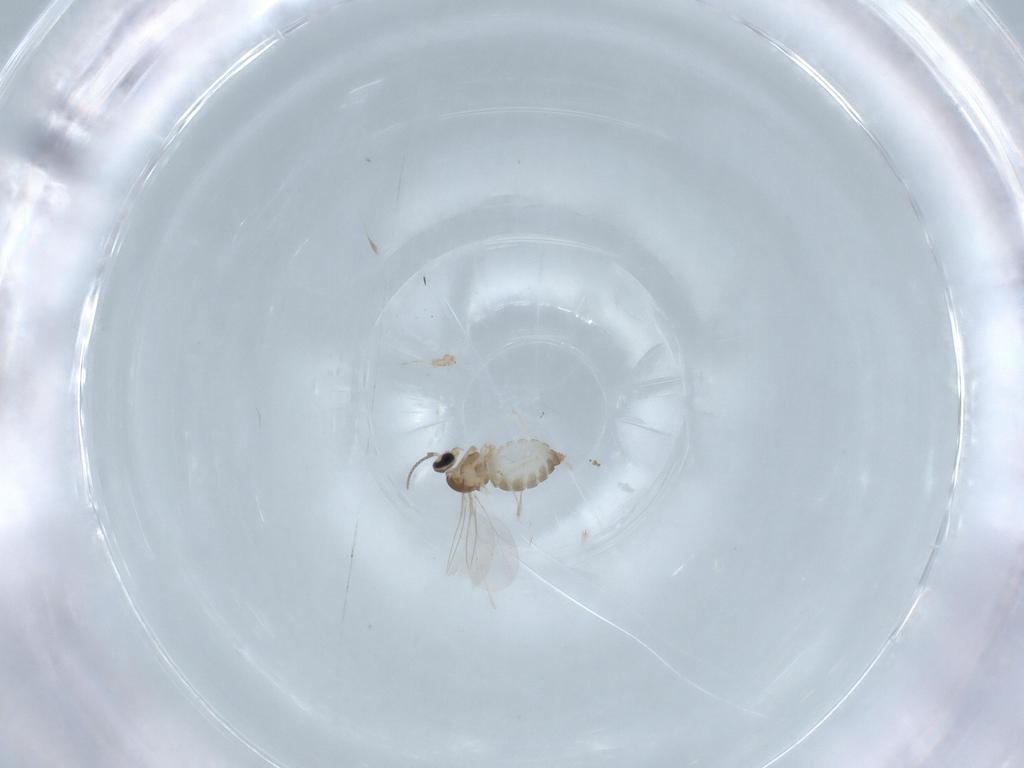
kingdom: Animalia
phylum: Arthropoda
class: Insecta
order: Diptera
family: Cecidomyiidae
